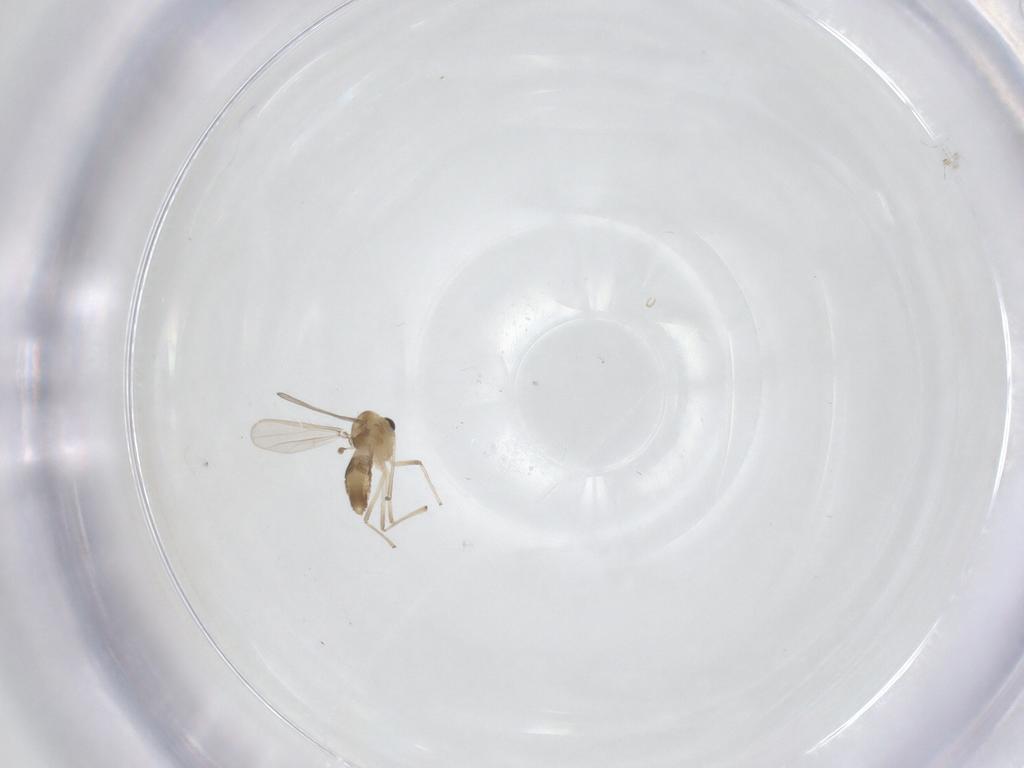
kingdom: Animalia
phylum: Arthropoda
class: Insecta
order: Diptera
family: Chironomidae
